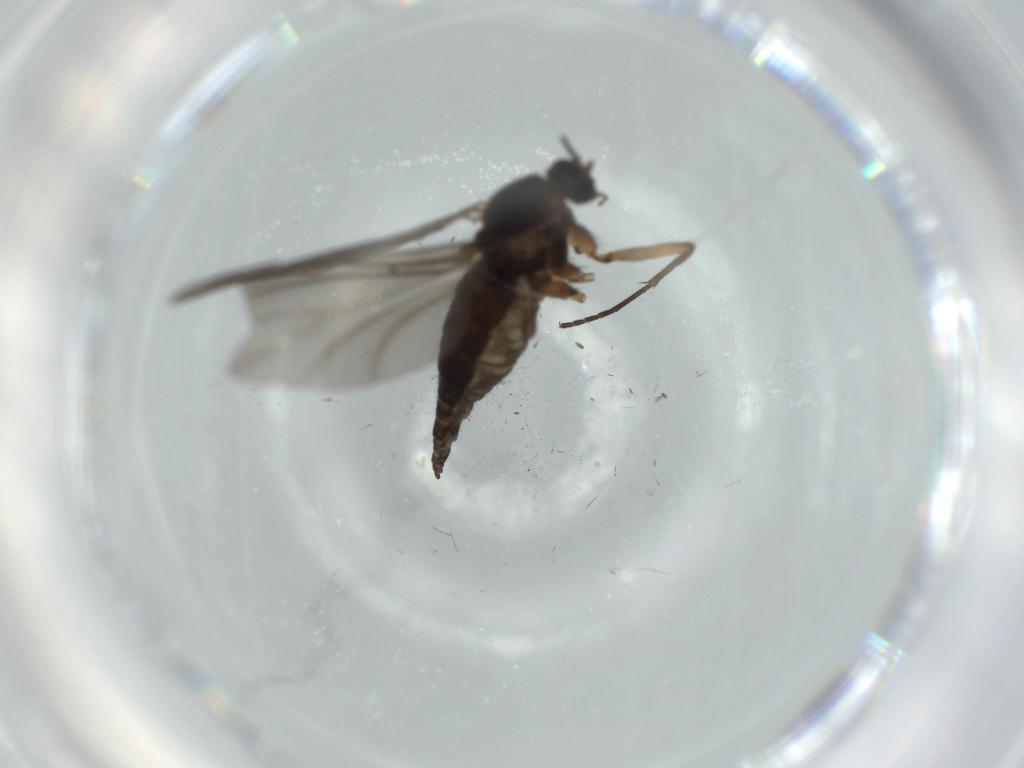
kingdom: Animalia
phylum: Arthropoda
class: Insecta
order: Diptera
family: Sciaridae
